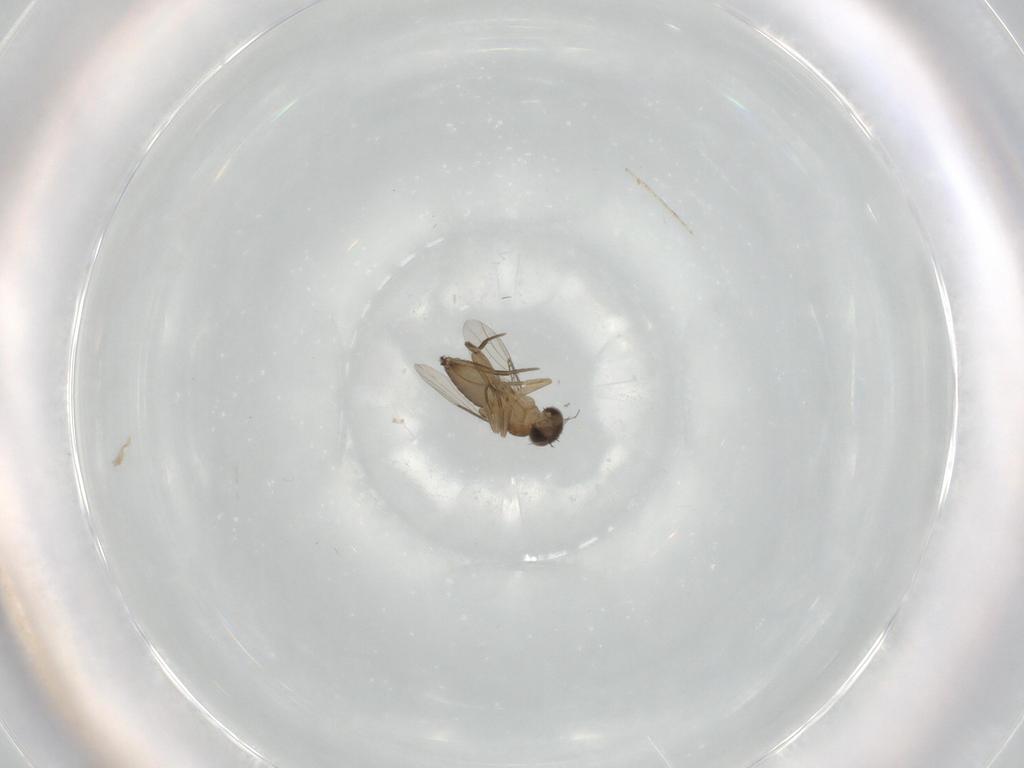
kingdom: Animalia
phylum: Arthropoda
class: Insecta
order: Diptera
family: Phoridae
